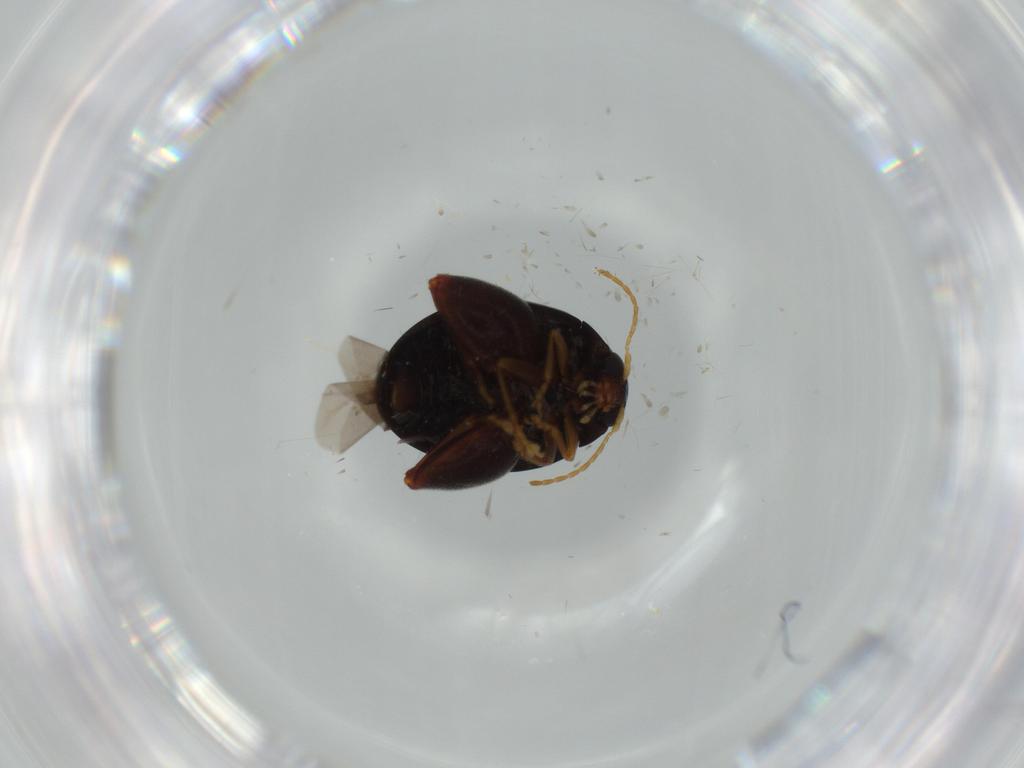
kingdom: Animalia
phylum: Arthropoda
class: Insecta
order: Coleoptera
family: Chrysomelidae
